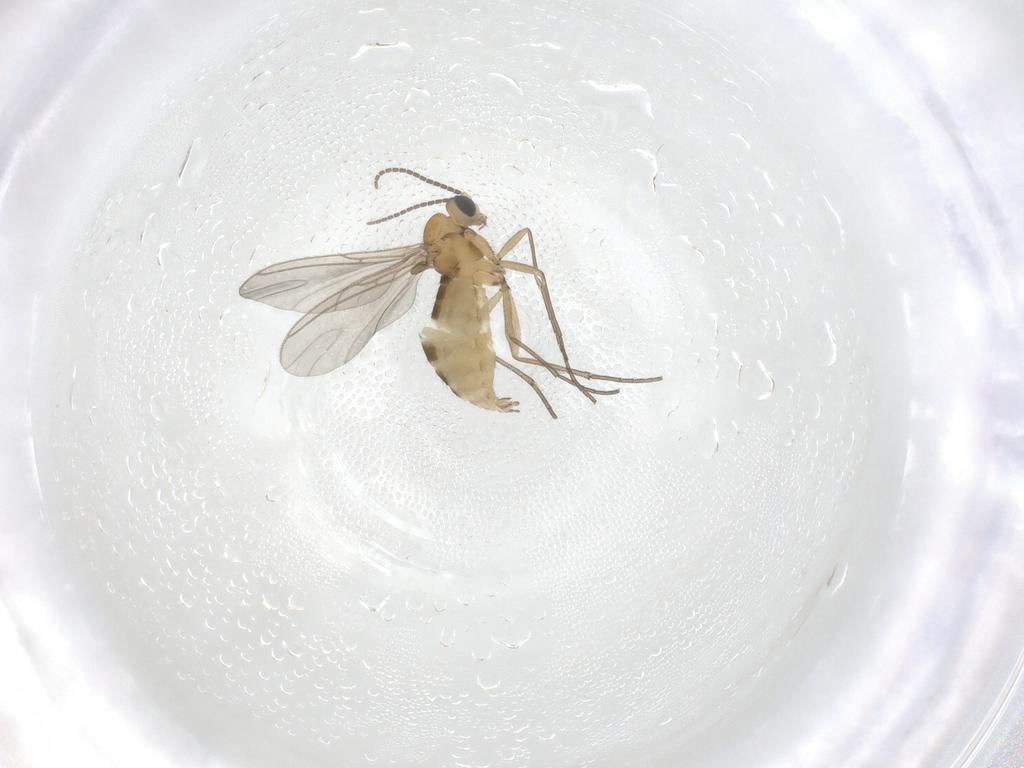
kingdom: Animalia
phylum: Arthropoda
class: Insecta
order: Diptera
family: Sciaridae
